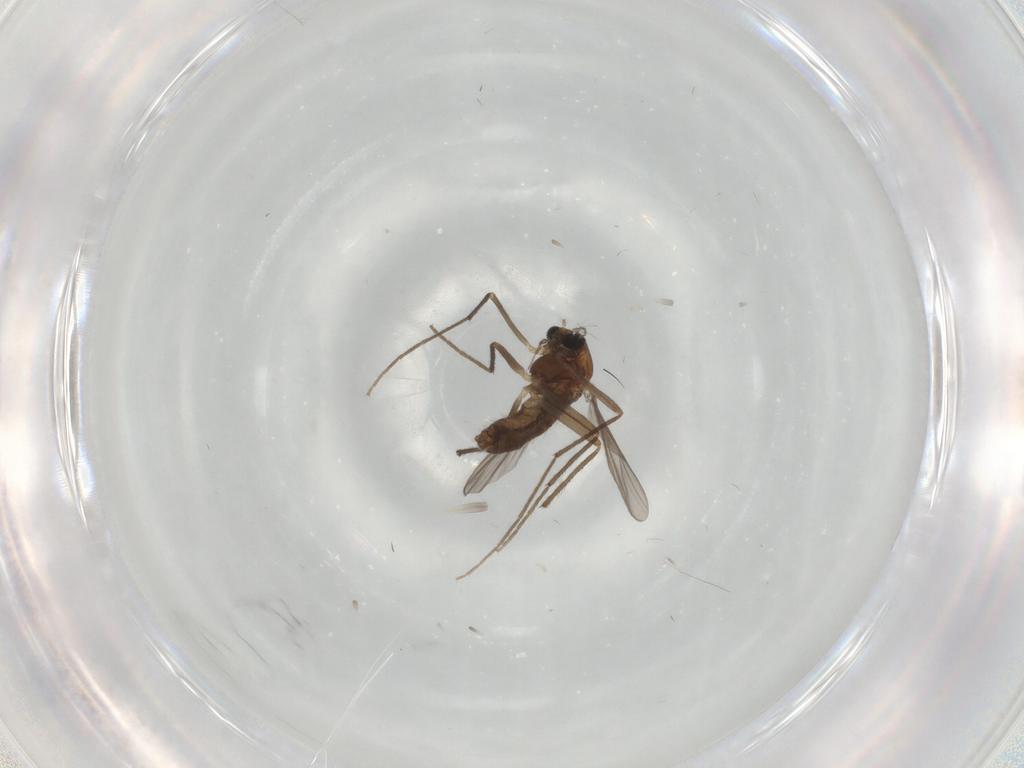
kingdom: Animalia
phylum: Arthropoda
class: Insecta
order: Diptera
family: Chironomidae
